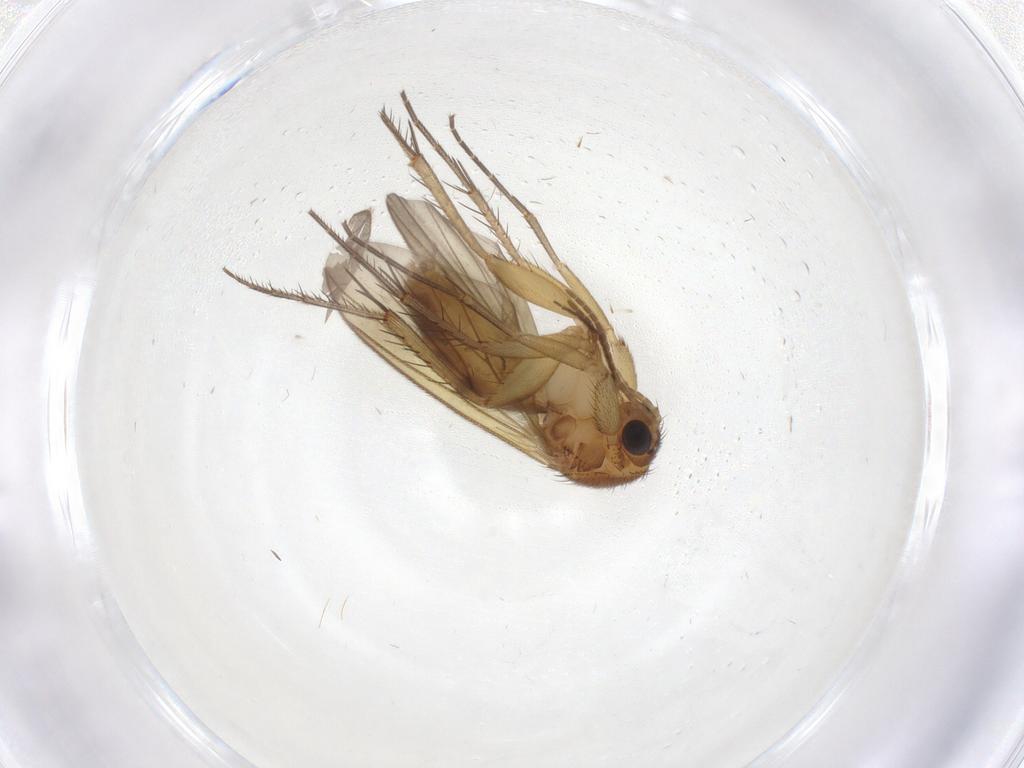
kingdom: Animalia
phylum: Arthropoda
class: Insecta
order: Diptera
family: Chironomidae
